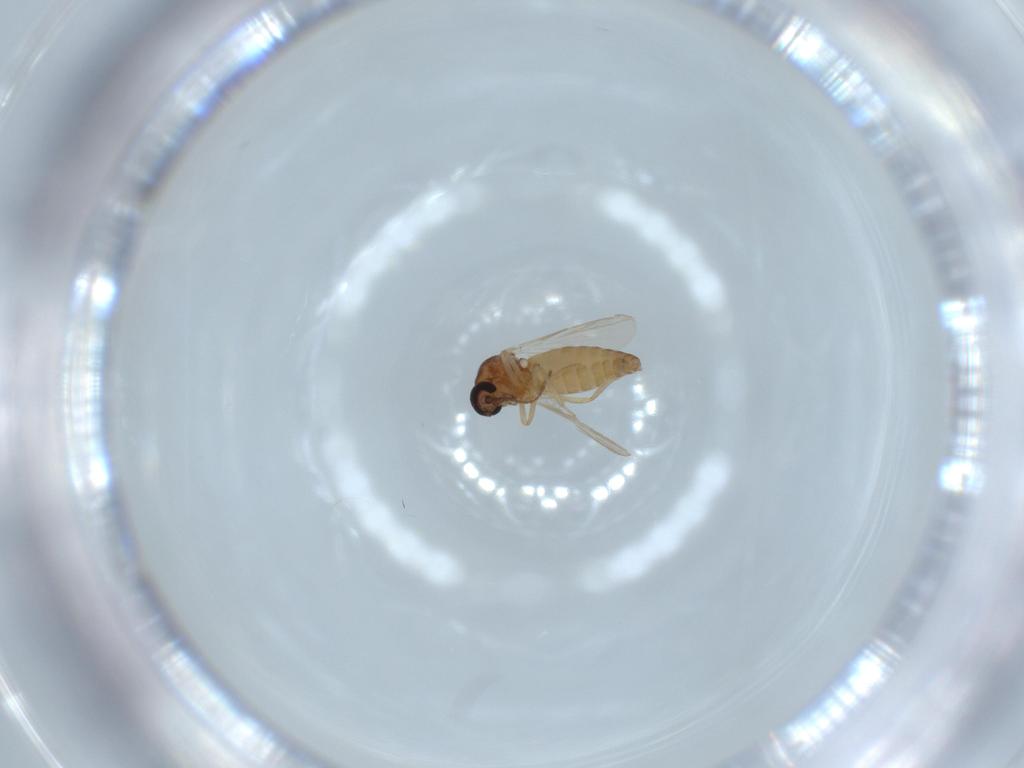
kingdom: Animalia
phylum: Arthropoda
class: Insecta
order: Diptera
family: Ceratopogonidae
